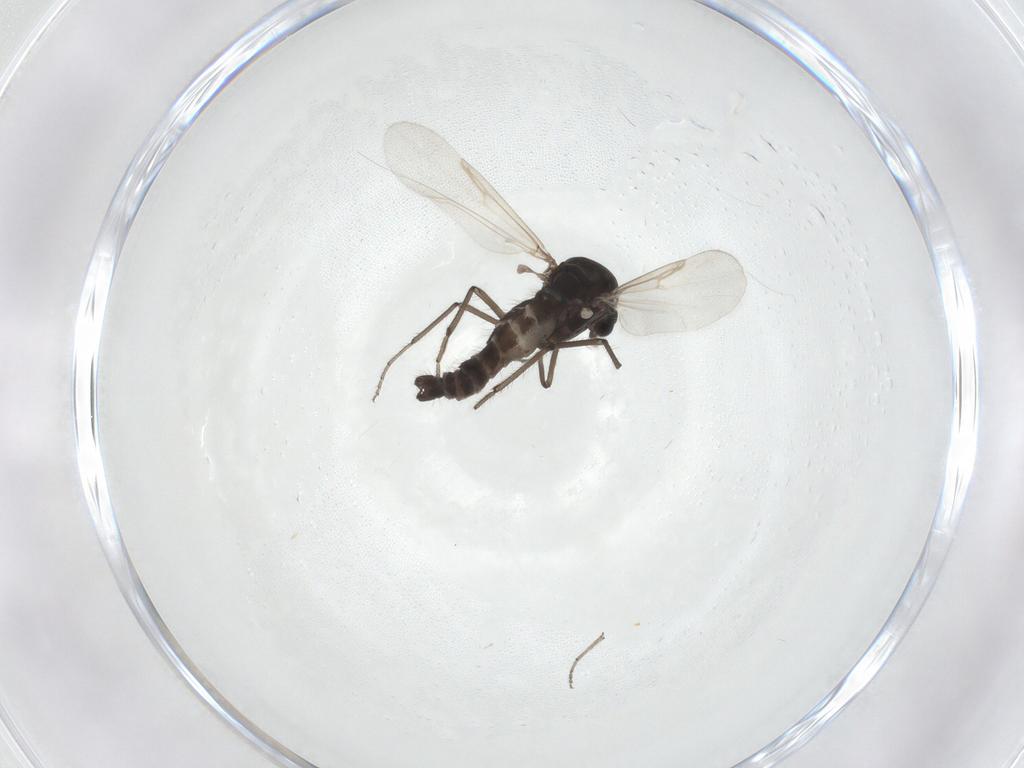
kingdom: Animalia
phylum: Arthropoda
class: Insecta
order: Diptera
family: Ceratopogonidae
